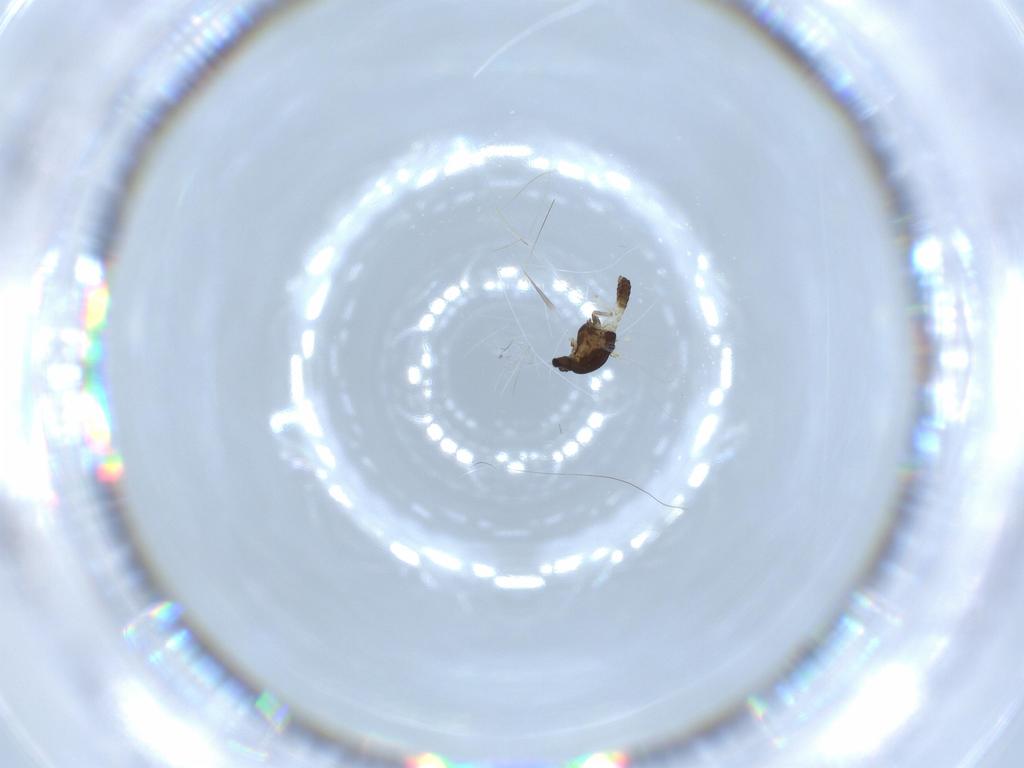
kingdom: Animalia
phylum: Arthropoda
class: Insecta
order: Diptera
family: Chironomidae
